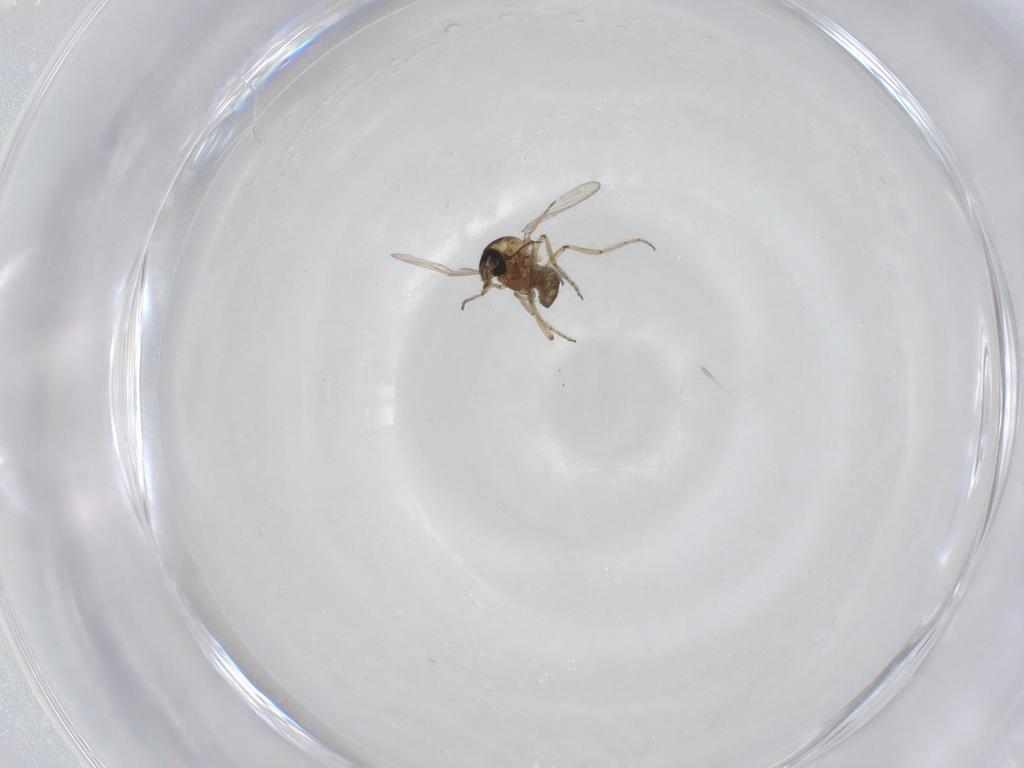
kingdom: Animalia
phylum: Arthropoda
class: Insecta
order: Diptera
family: Ceratopogonidae
